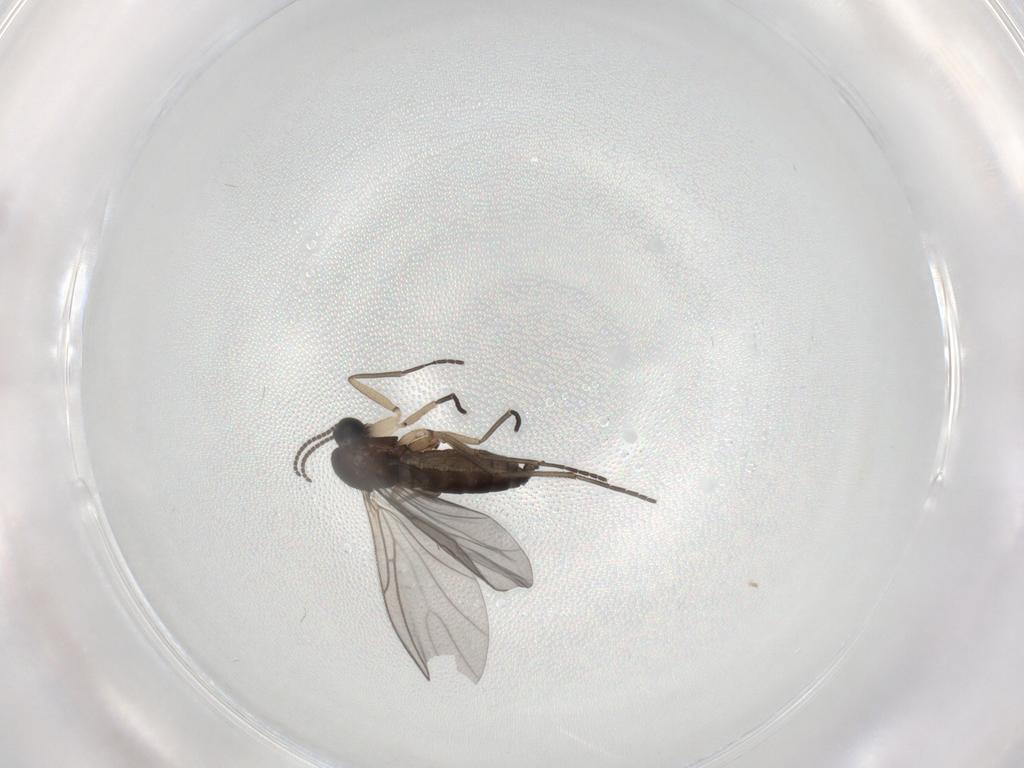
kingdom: Animalia
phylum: Arthropoda
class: Insecta
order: Diptera
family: Sciaridae
